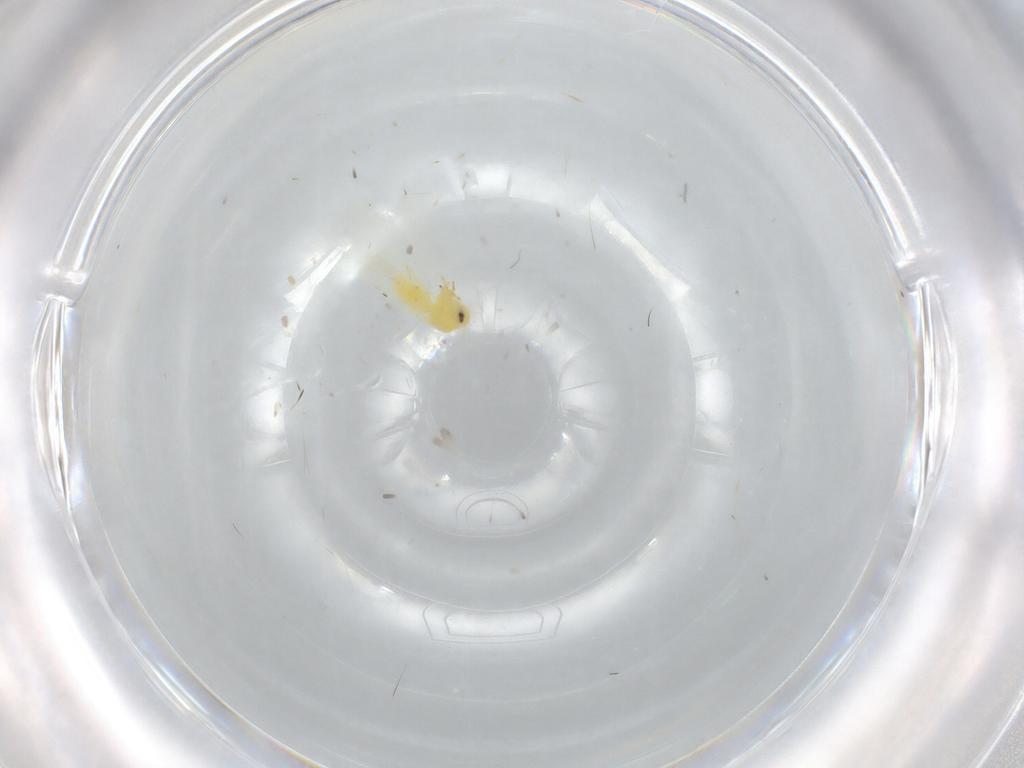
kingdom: Animalia
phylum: Arthropoda
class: Insecta
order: Hemiptera
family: Aleyrodidae
